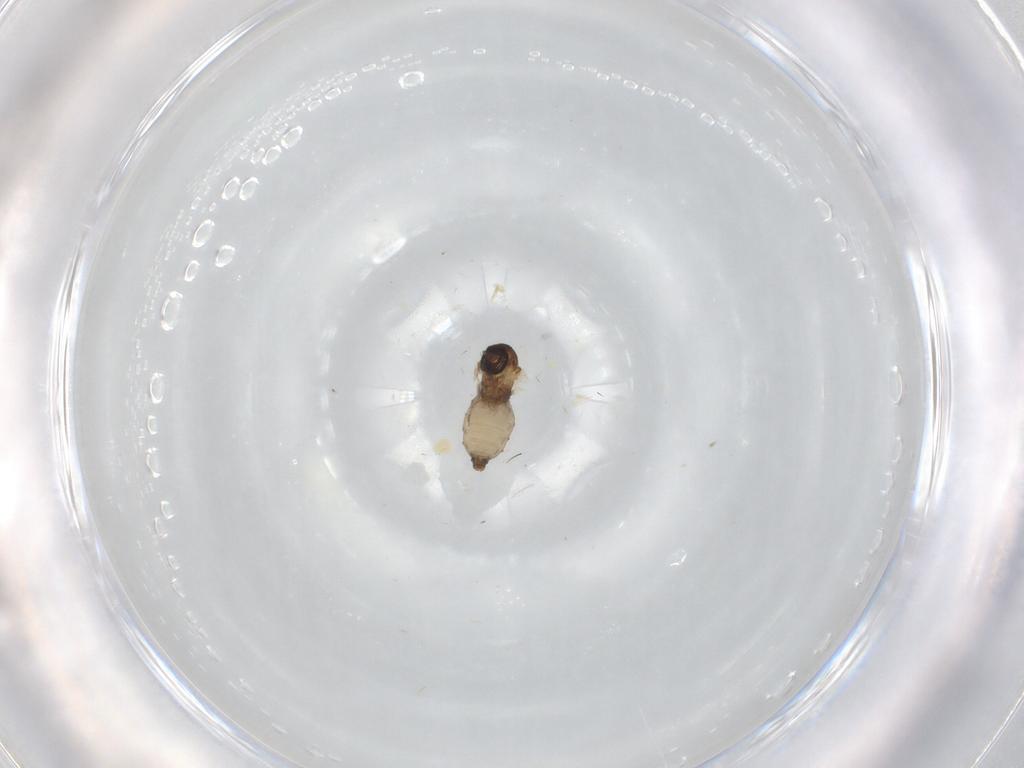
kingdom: Animalia
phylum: Arthropoda
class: Insecta
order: Diptera
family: Psychodidae
